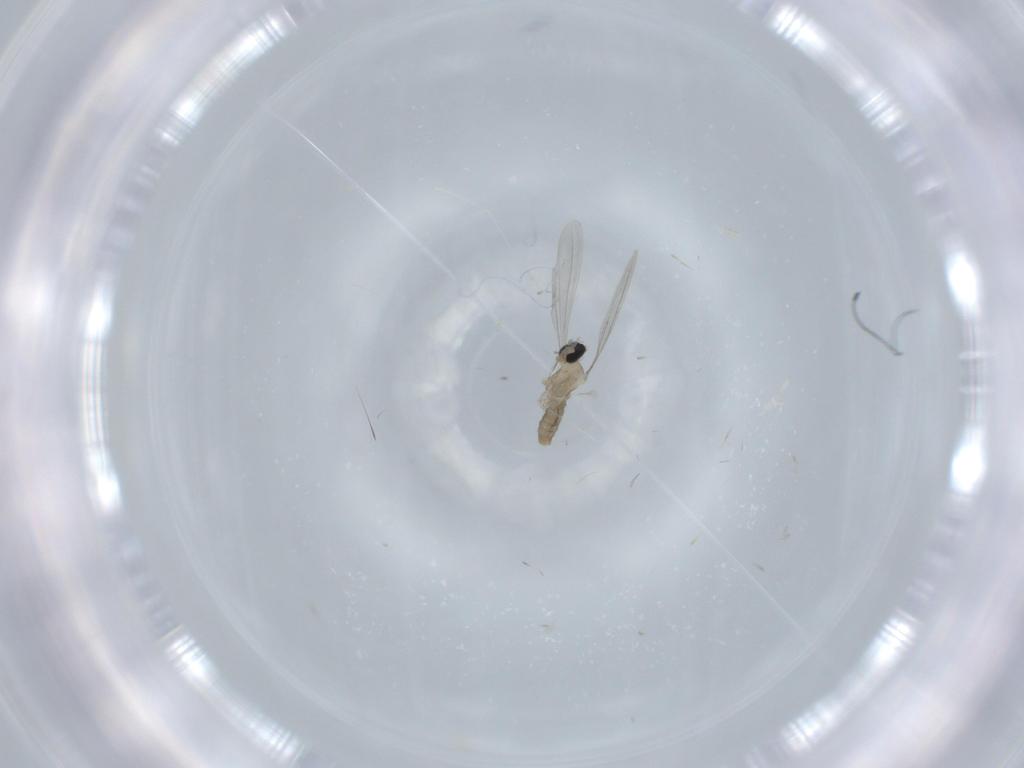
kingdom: Animalia
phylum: Arthropoda
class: Insecta
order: Diptera
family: Cecidomyiidae
